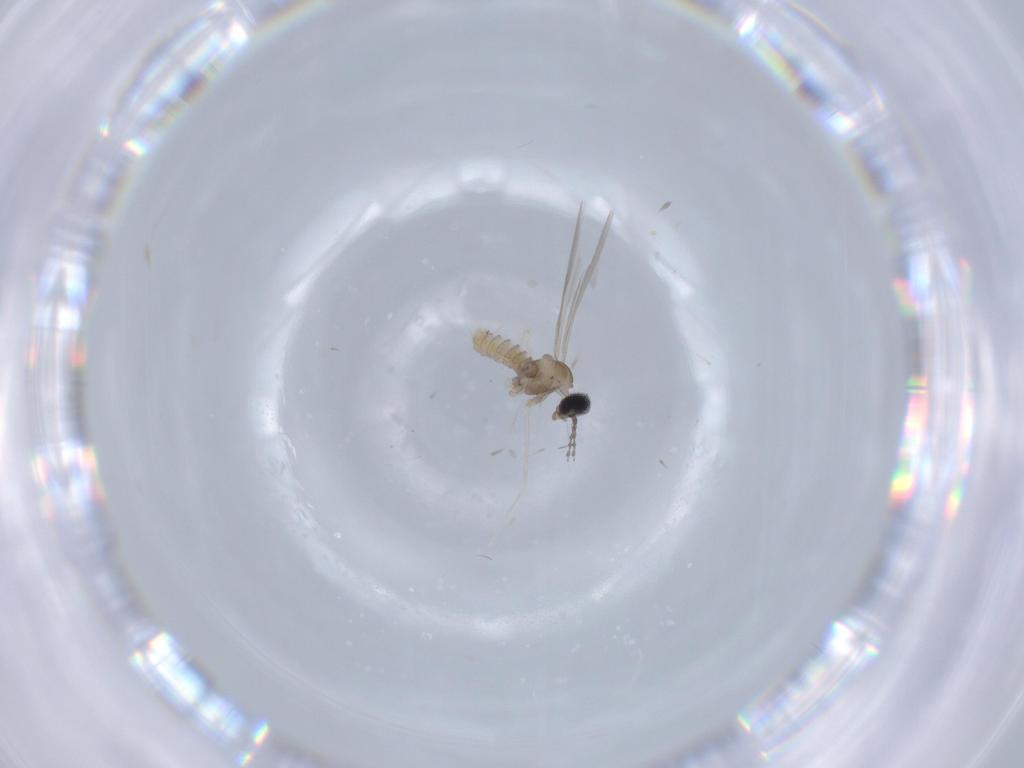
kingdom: Animalia
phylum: Arthropoda
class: Insecta
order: Diptera
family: Cecidomyiidae
